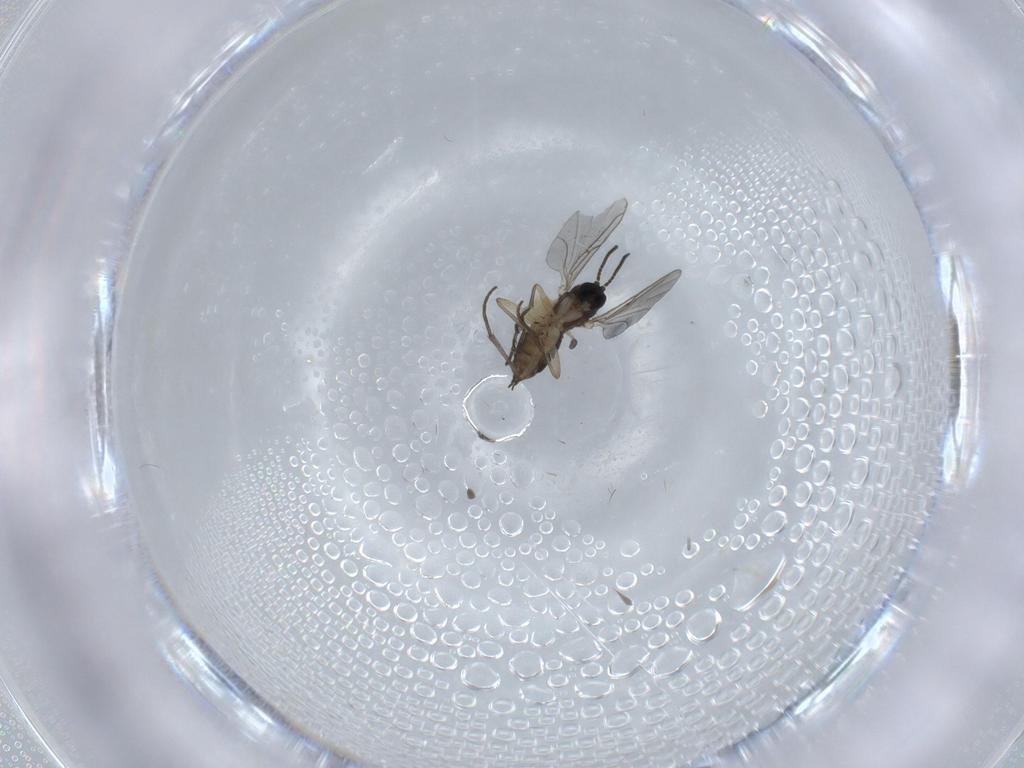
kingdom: Animalia
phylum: Arthropoda
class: Insecta
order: Diptera
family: Sciaridae
